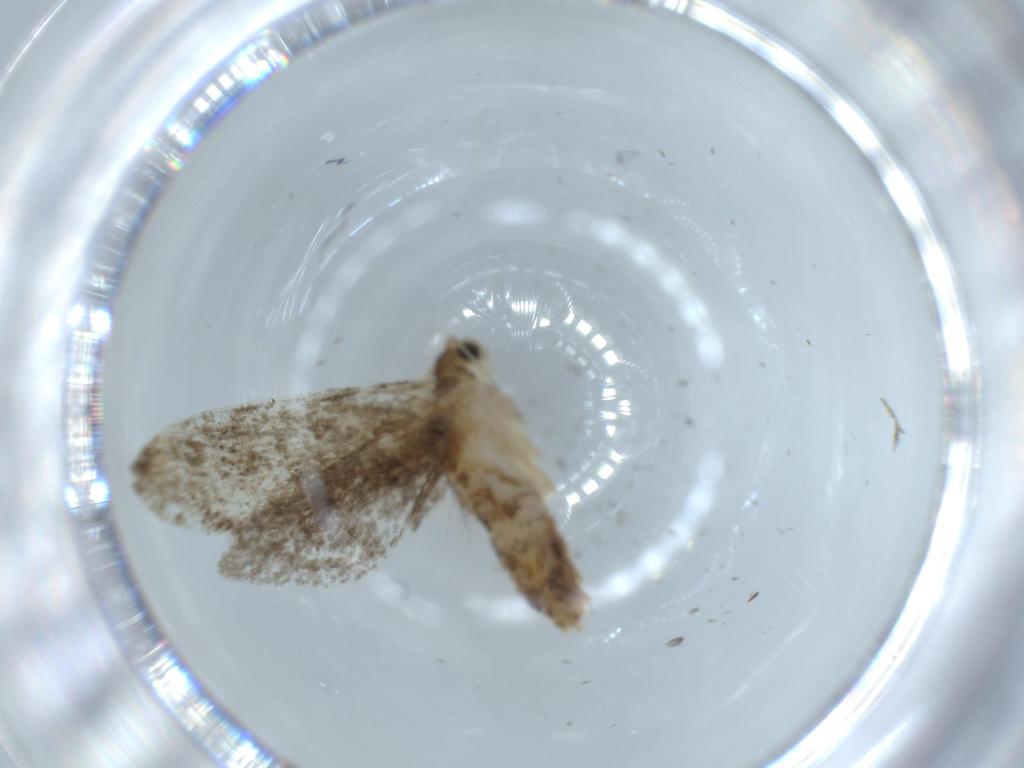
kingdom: Animalia
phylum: Arthropoda
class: Insecta
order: Lepidoptera
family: Tineidae
